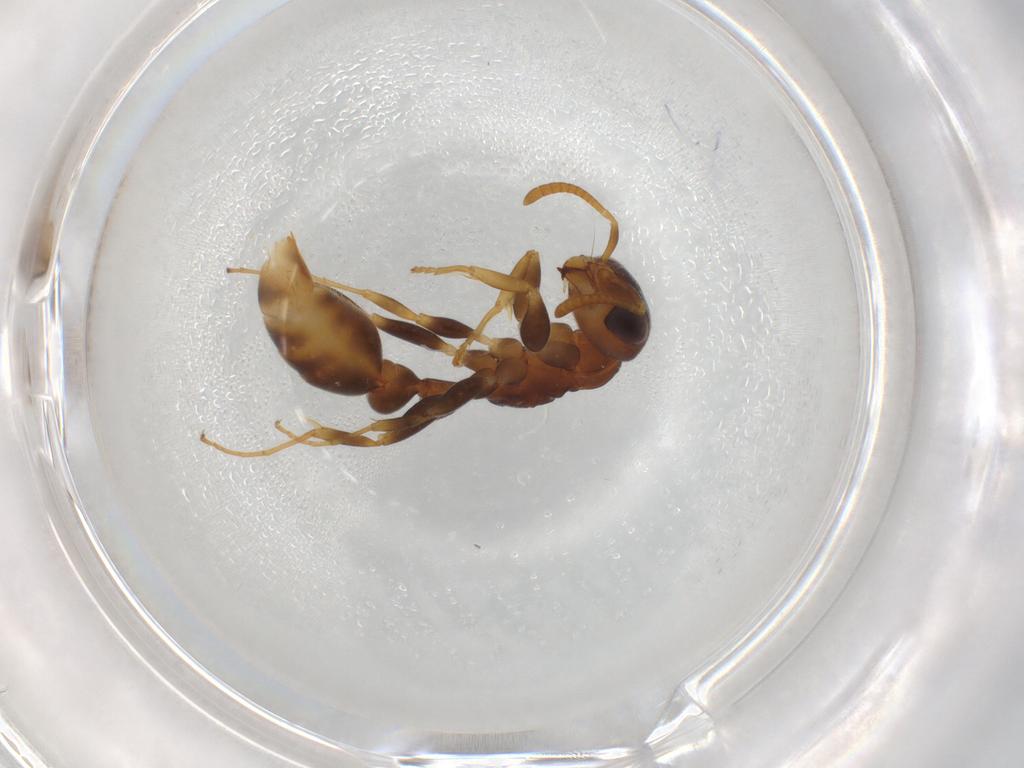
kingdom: Animalia
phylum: Arthropoda
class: Insecta
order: Hymenoptera
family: Formicidae
